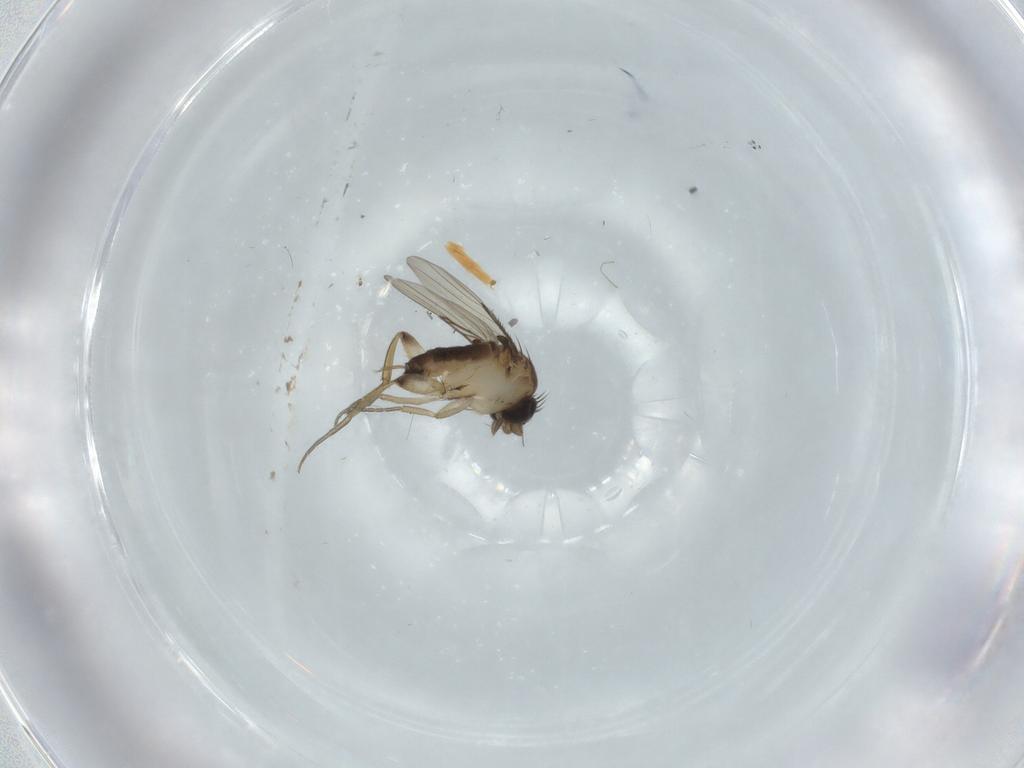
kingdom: Animalia
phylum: Arthropoda
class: Insecta
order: Diptera
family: Phoridae
